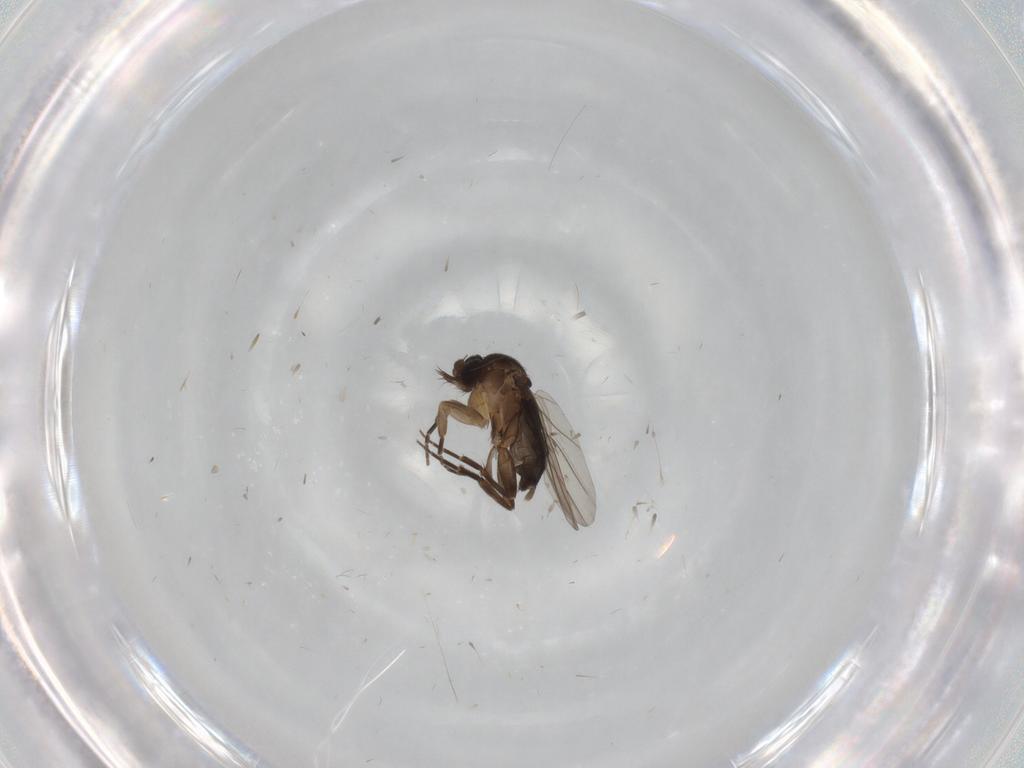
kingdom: Animalia
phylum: Arthropoda
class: Insecta
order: Diptera
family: Phoridae
